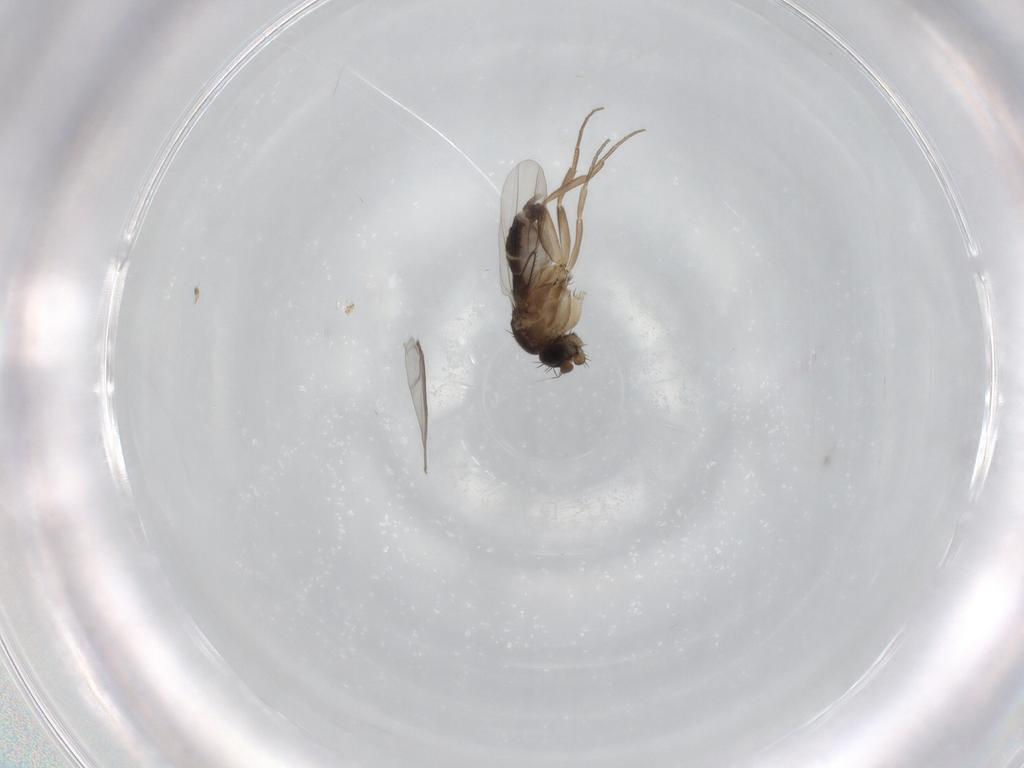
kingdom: Animalia
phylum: Arthropoda
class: Insecta
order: Diptera
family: Phoridae
